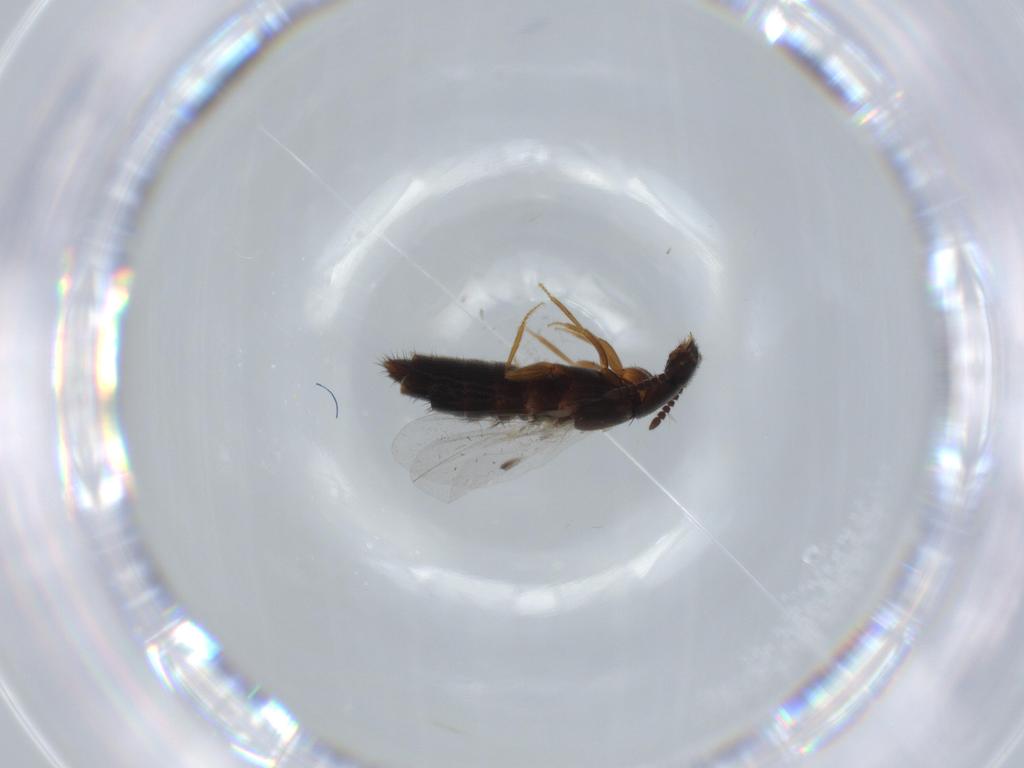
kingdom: Animalia
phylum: Arthropoda
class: Insecta
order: Coleoptera
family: Coccinellidae
